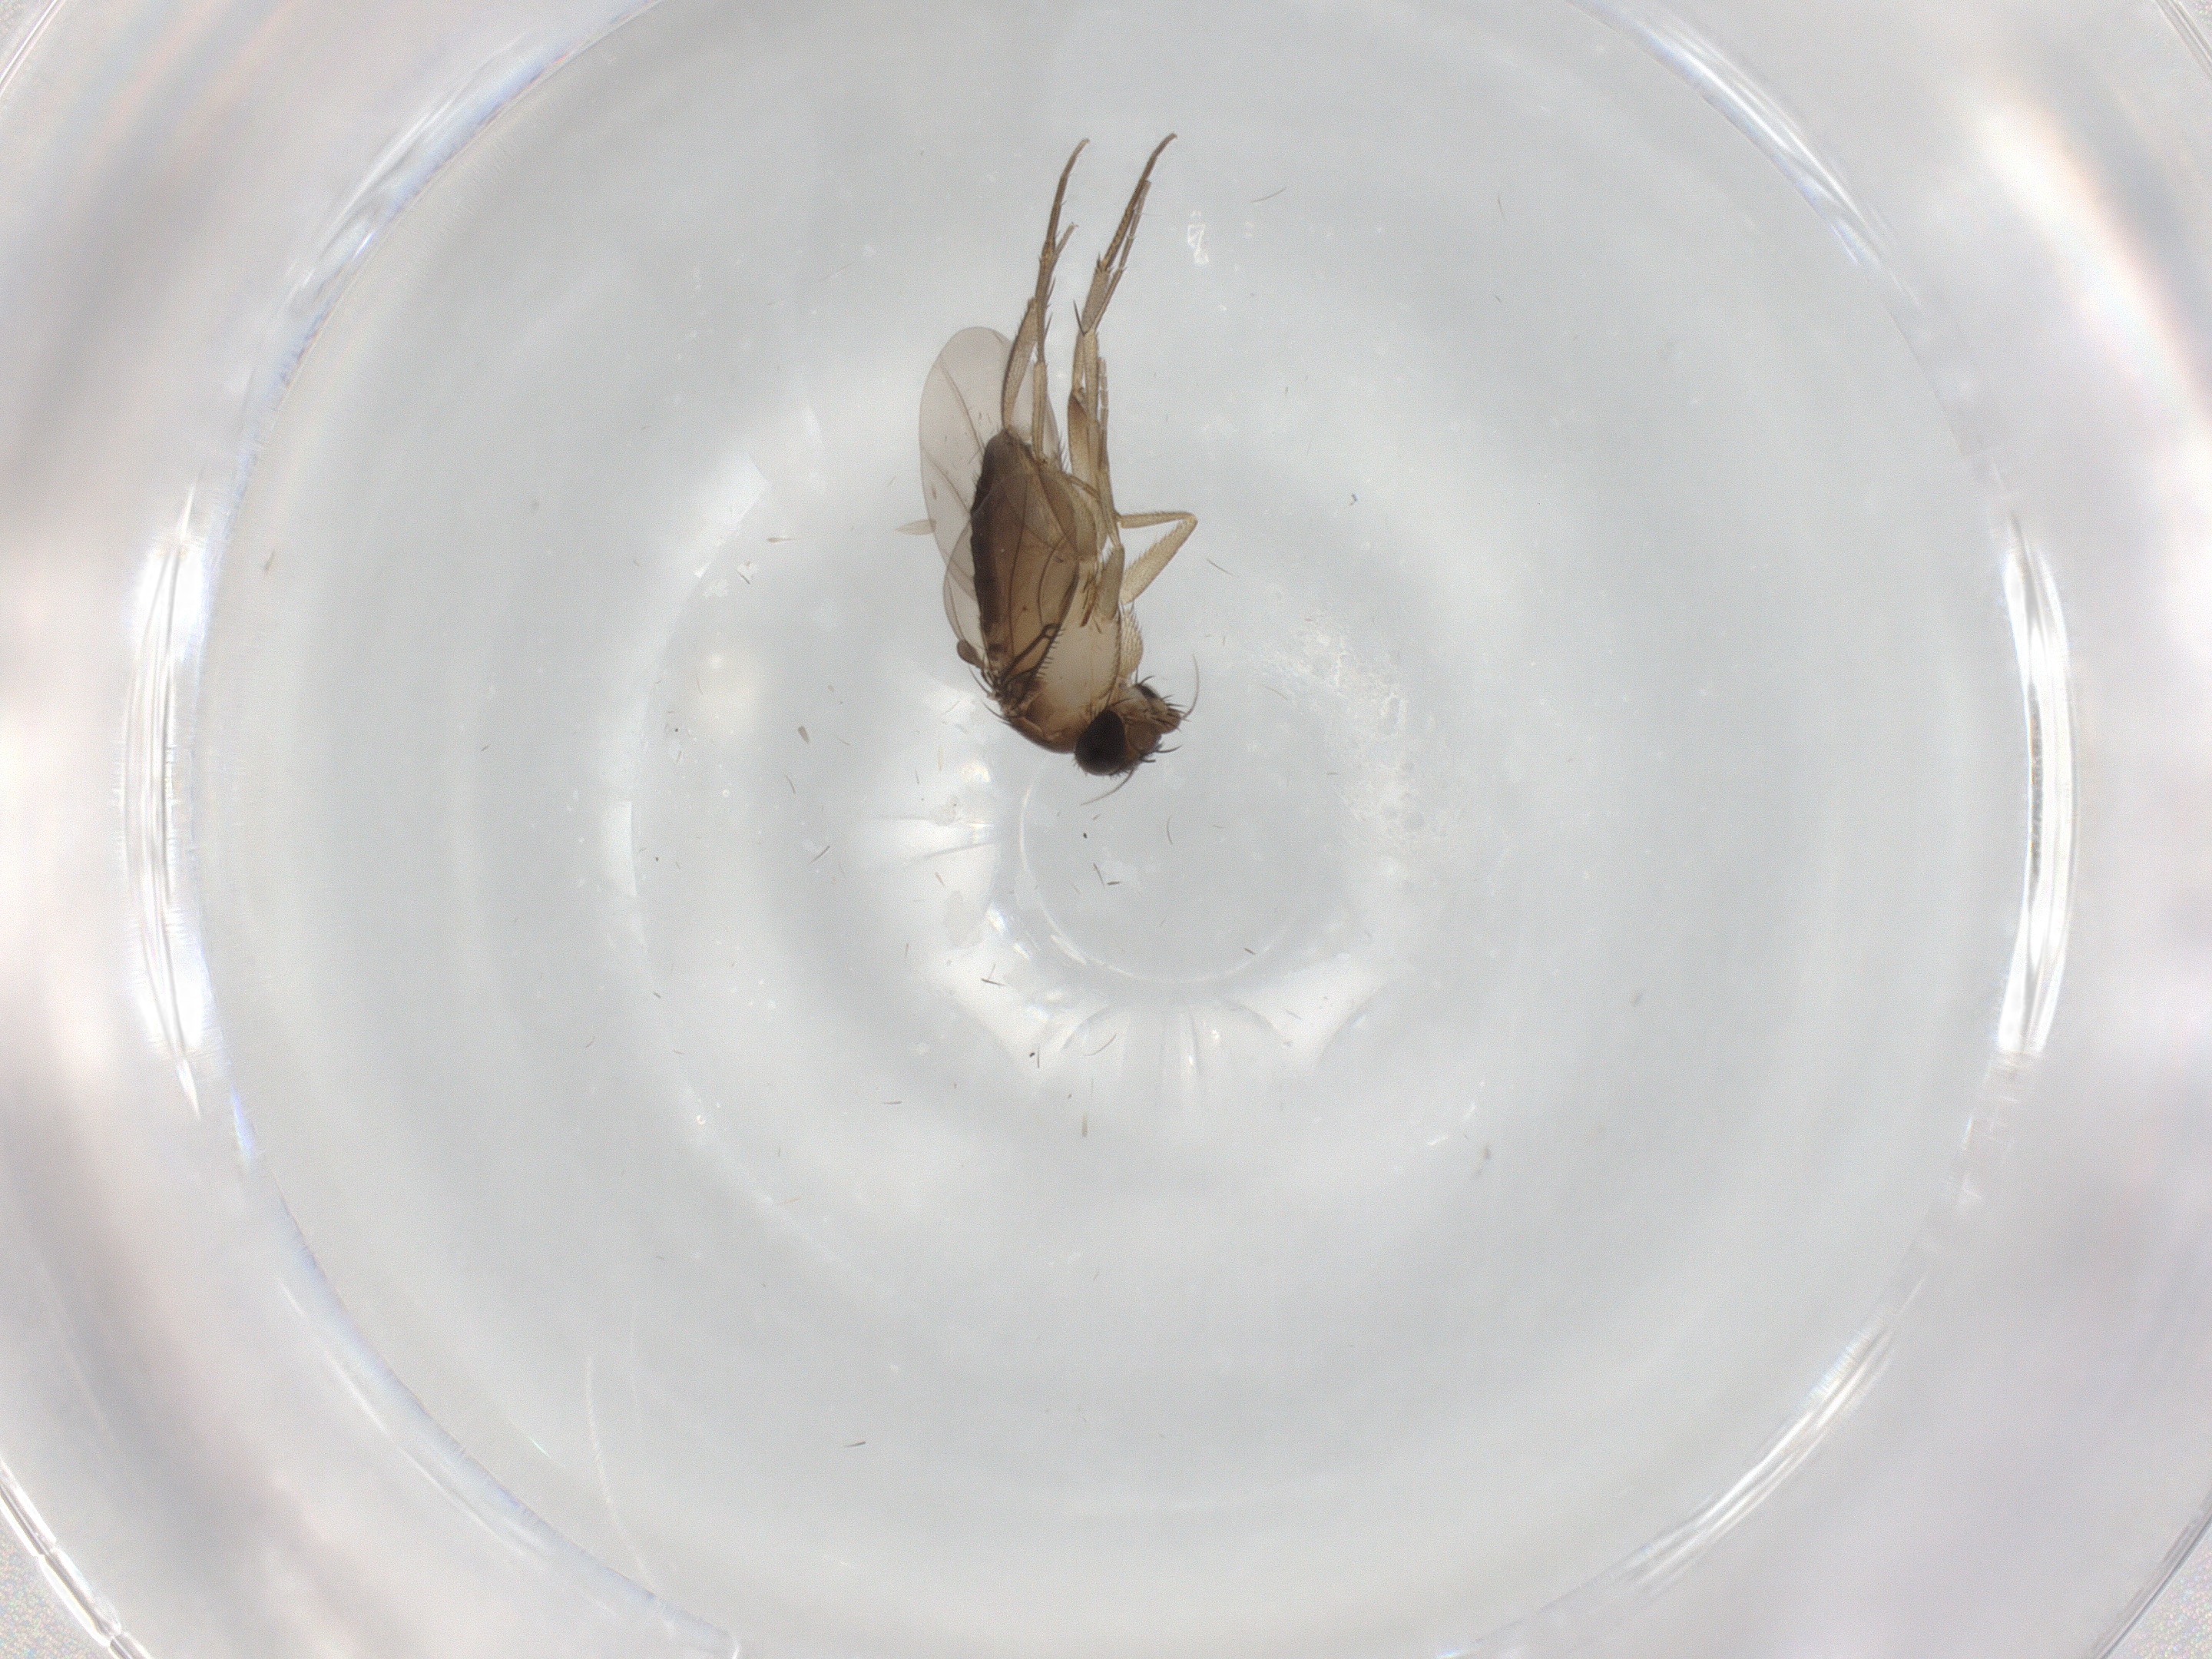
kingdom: Animalia
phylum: Arthropoda
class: Insecta
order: Diptera
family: Phoridae
